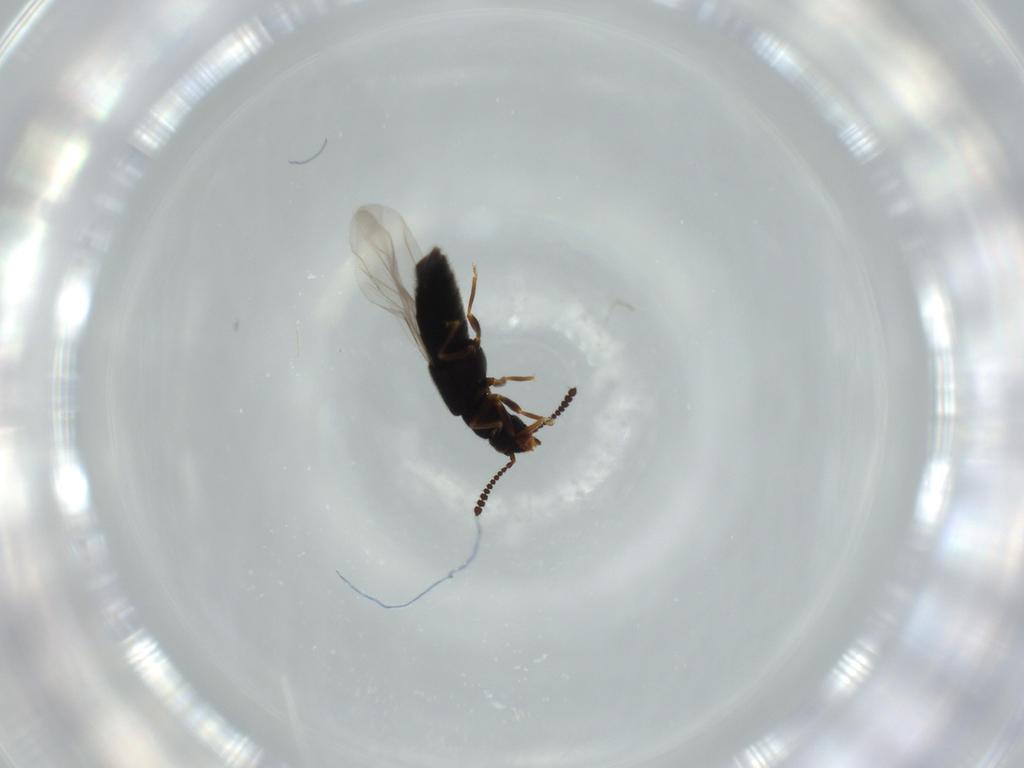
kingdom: Animalia
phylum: Arthropoda
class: Insecta
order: Coleoptera
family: Staphylinidae
